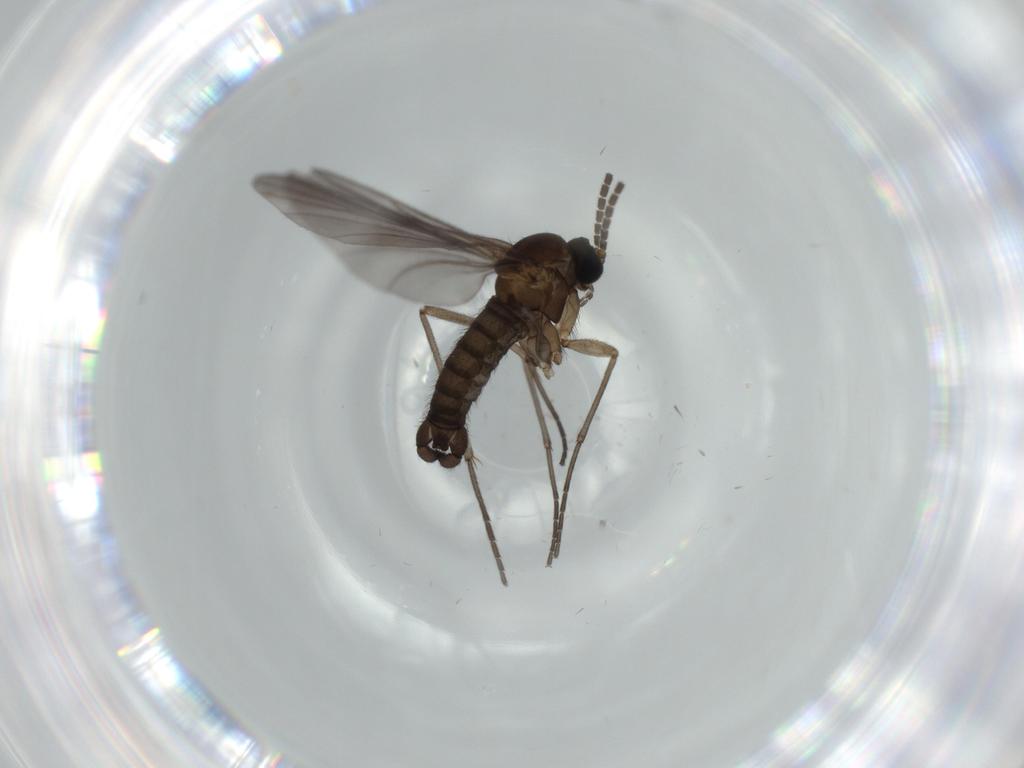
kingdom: Animalia
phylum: Arthropoda
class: Insecta
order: Diptera
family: Sciaridae
